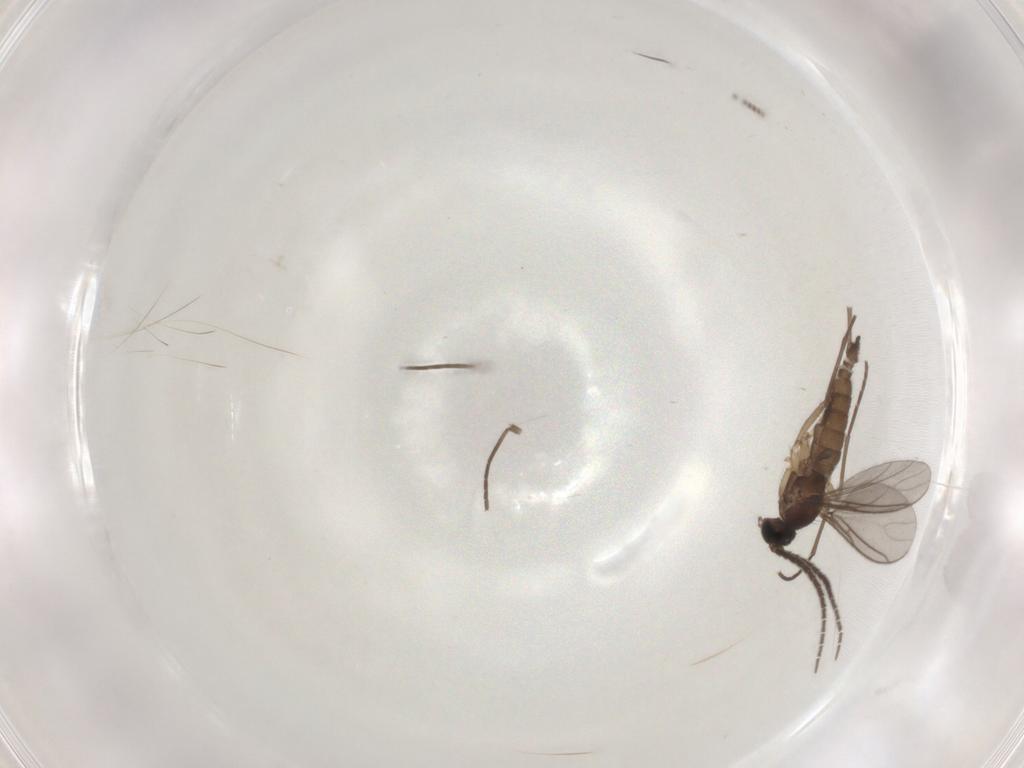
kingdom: Animalia
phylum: Arthropoda
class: Insecta
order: Diptera
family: Sciaridae
